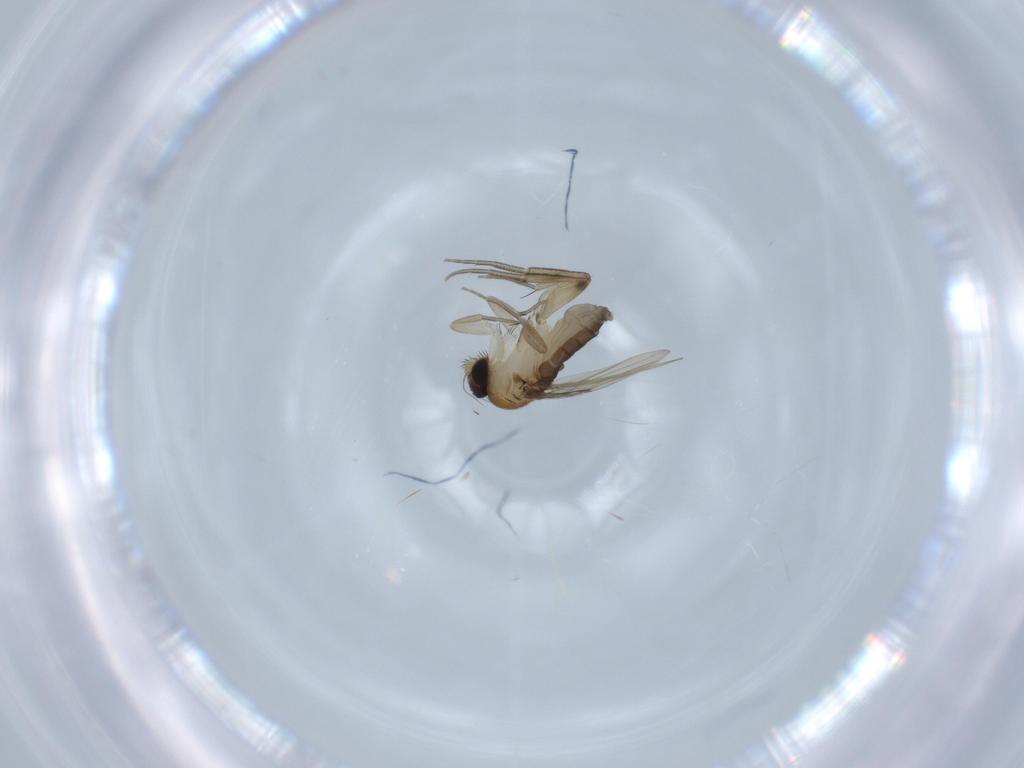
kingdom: Animalia
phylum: Arthropoda
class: Insecta
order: Diptera
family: Phoridae
